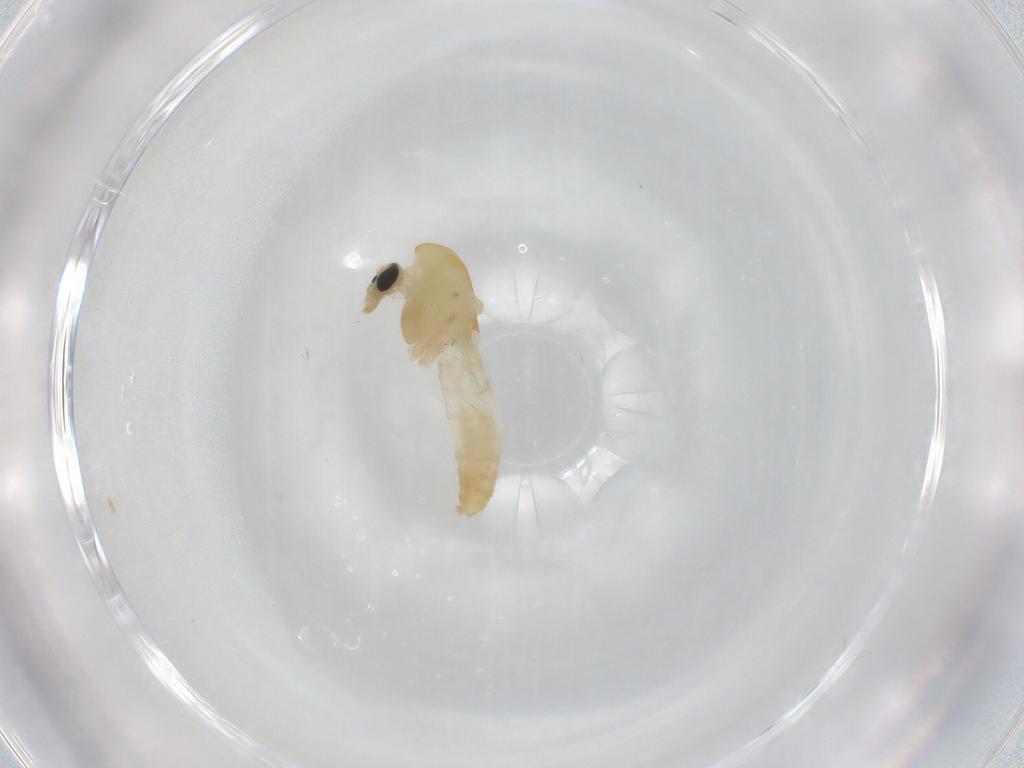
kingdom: Animalia
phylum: Arthropoda
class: Insecta
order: Diptera
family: Chironomidae
